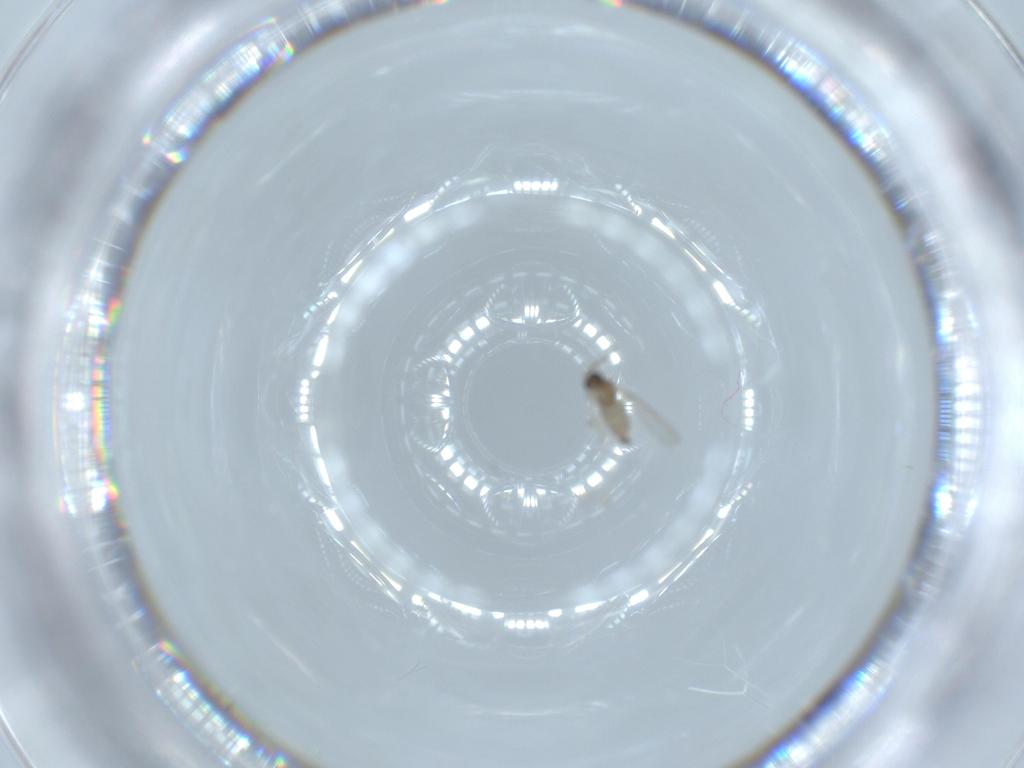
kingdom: Animalia
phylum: Arthropoda
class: Insecta
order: Diptera
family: Cecidomyiidae
